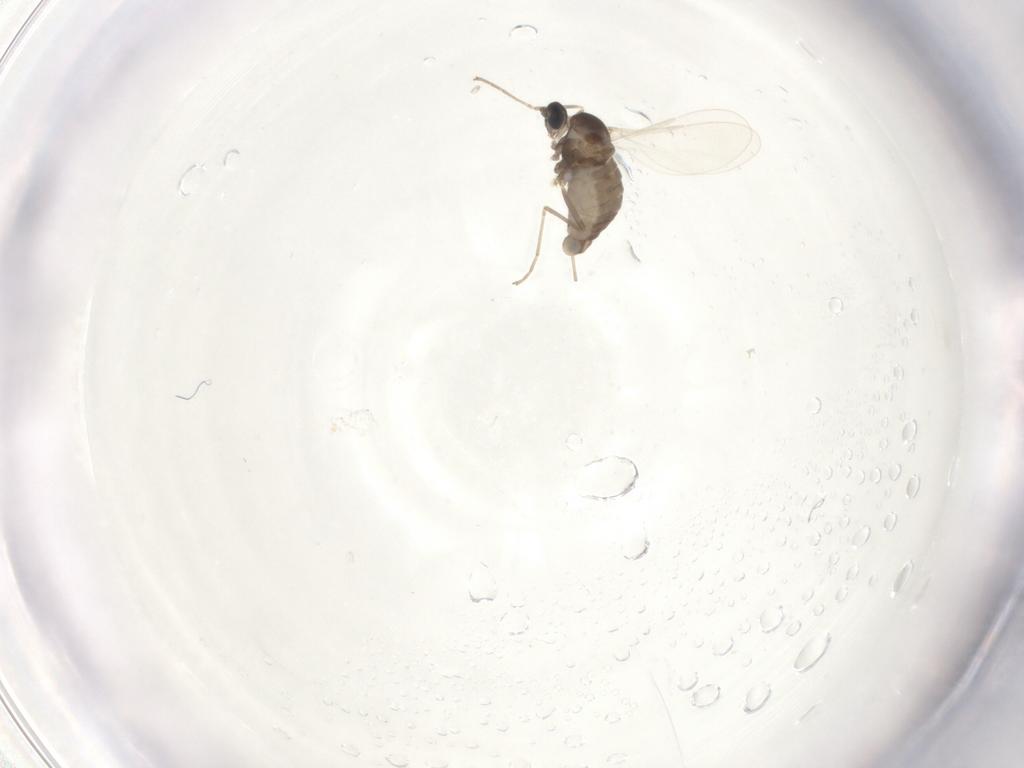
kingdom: Animalia
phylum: Arthropoda
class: Insecta
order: Diptera
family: Cecidomyiidae
